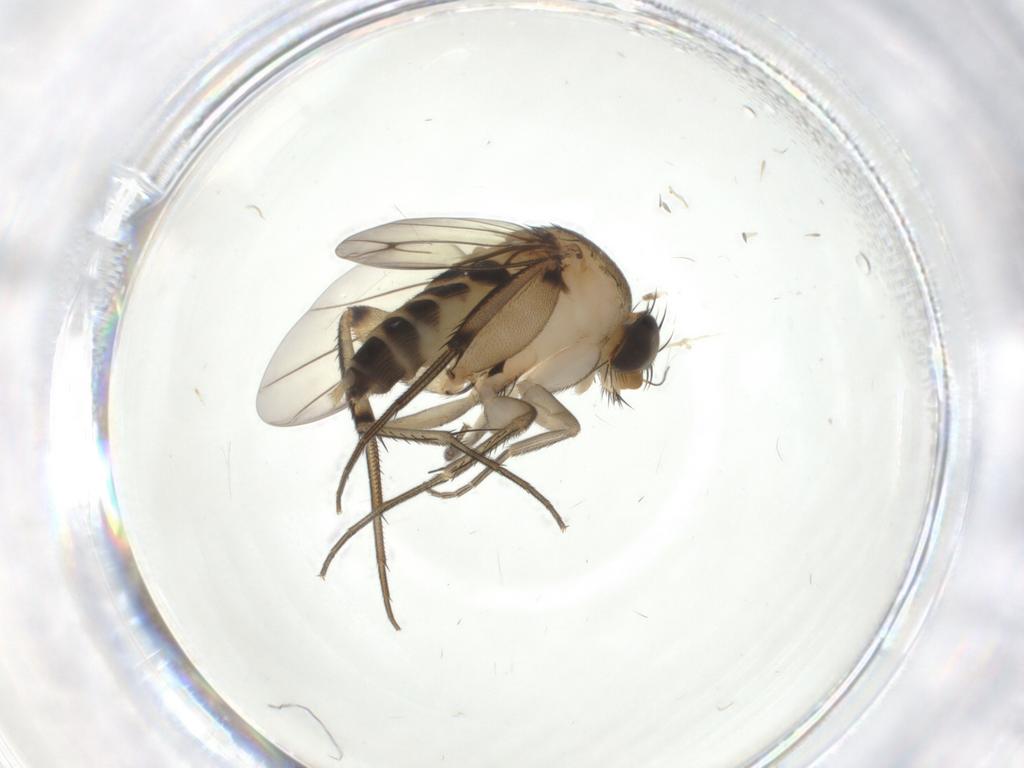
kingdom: Animalia
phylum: Arthropoda
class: Insecta
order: Diptera
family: Phoridae
